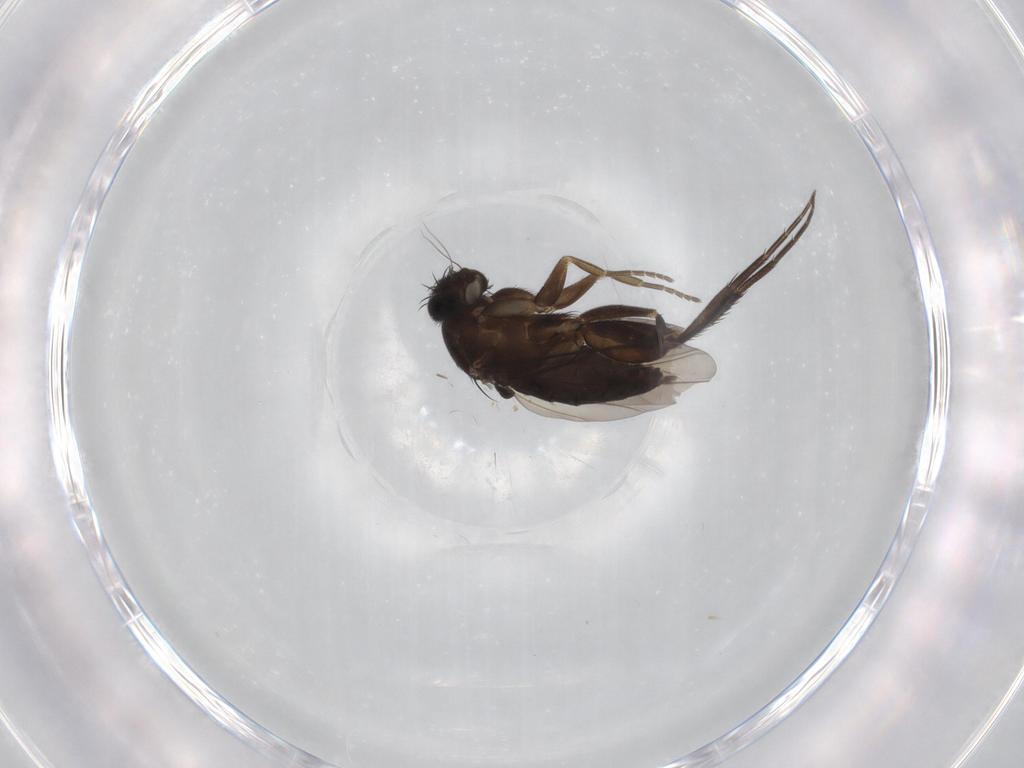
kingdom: Animalia
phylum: Arthropoda
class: Insecta
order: Diptera
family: Phoridae
